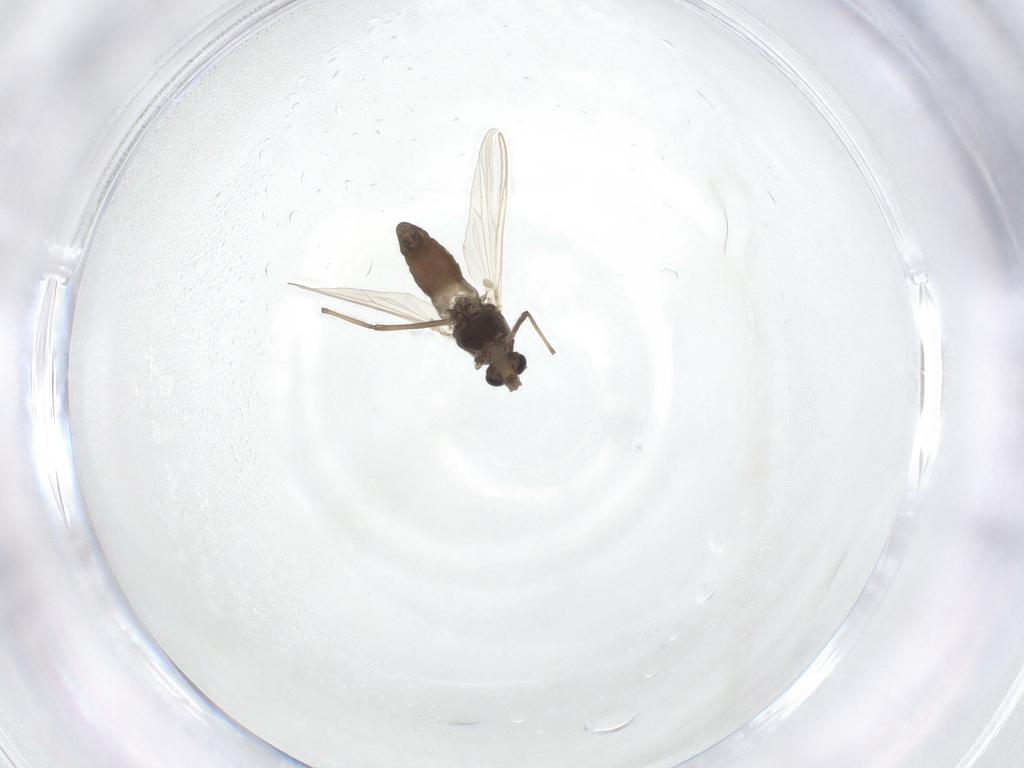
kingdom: Animalia
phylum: Arthropoda
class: Insecta
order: Diptera
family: Chironomidae
